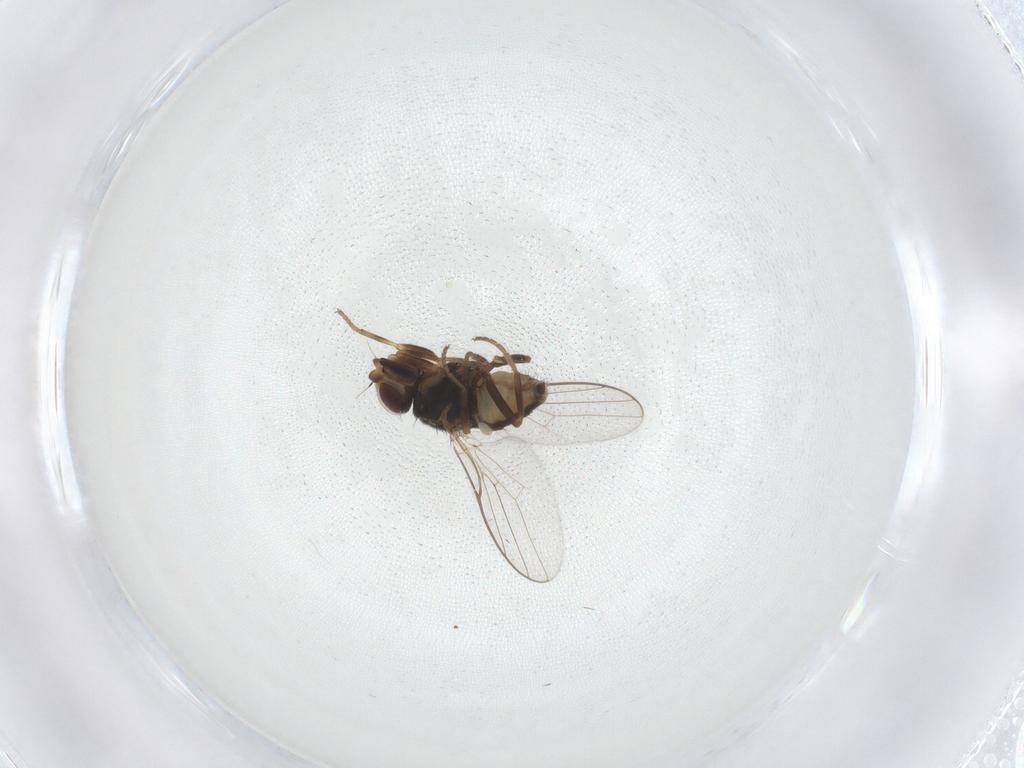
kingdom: Animalia
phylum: Arthropoda
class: Insecta
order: Diptera
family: Chloropidae
